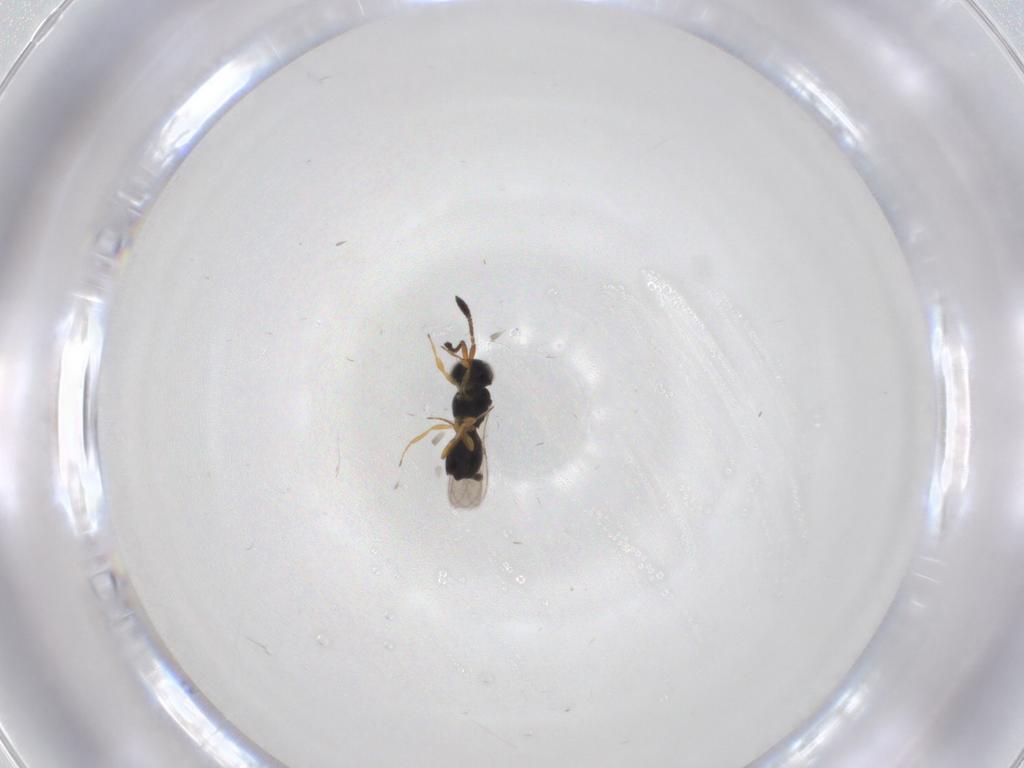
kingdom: Animalia
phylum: Arthropoda
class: Insecta
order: Hymenoptera
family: Scelionidae
